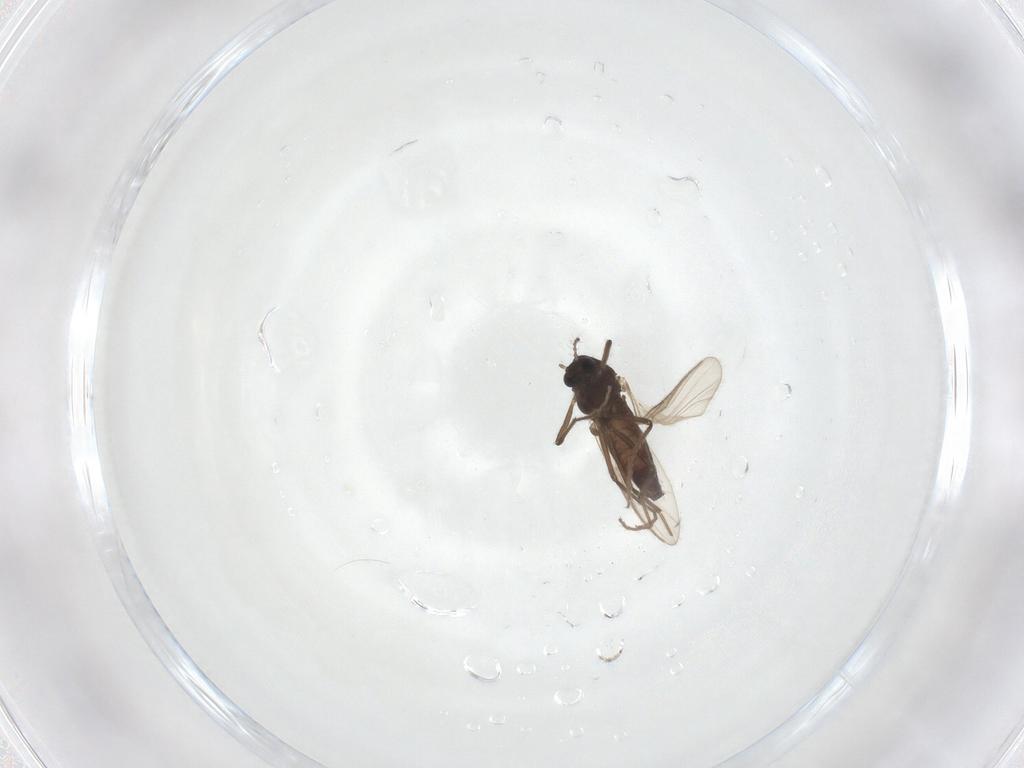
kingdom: Animalia
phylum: Arthropoda
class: Insecta
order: Diptera
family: Chironomidae
